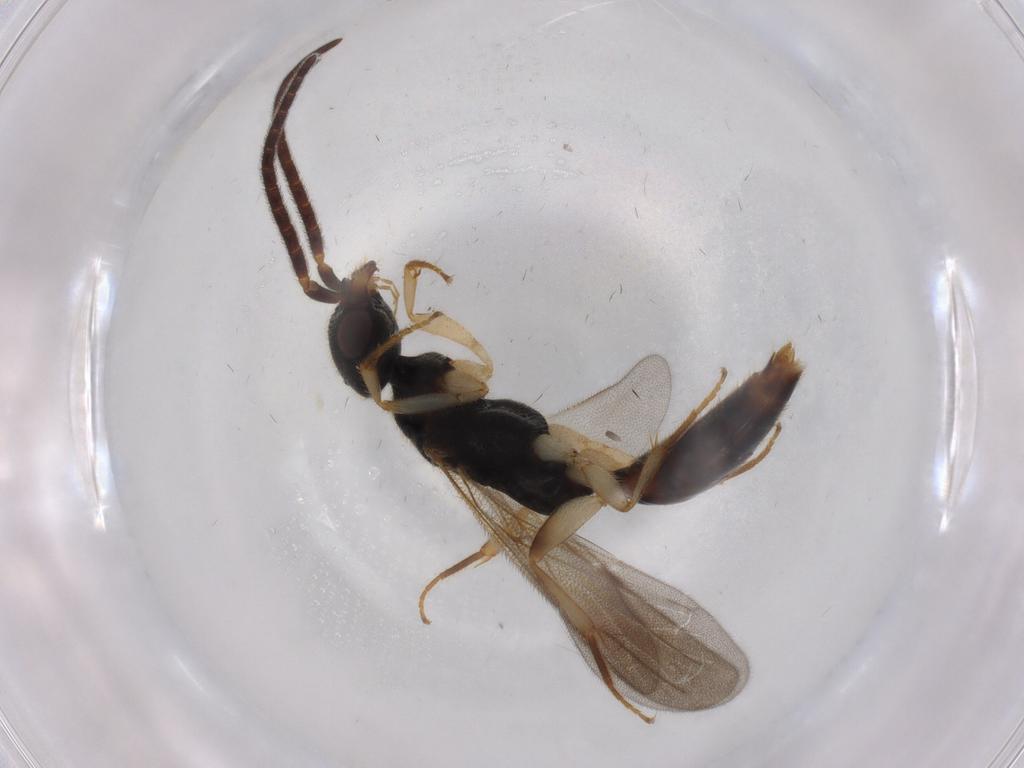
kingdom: Animalia
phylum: Arthropoda
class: Insecta
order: Hymenoptera
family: Bethylidae
